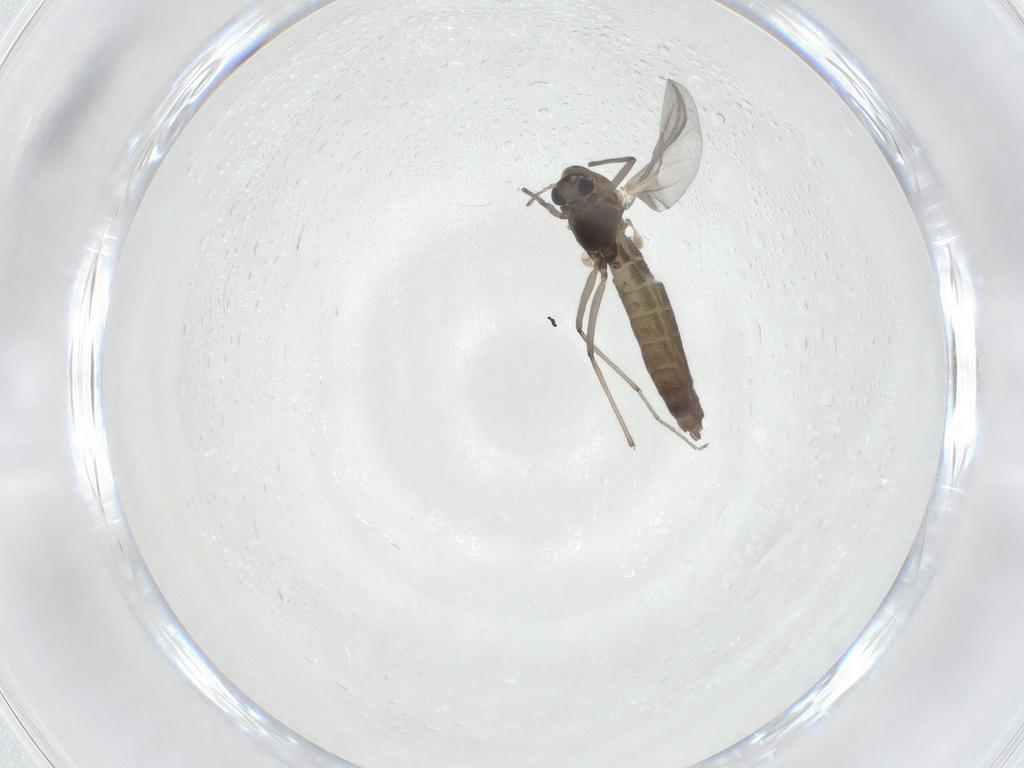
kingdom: Animalia
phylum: Arthropoda
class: Insecta
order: Diptera
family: Chironomidae
